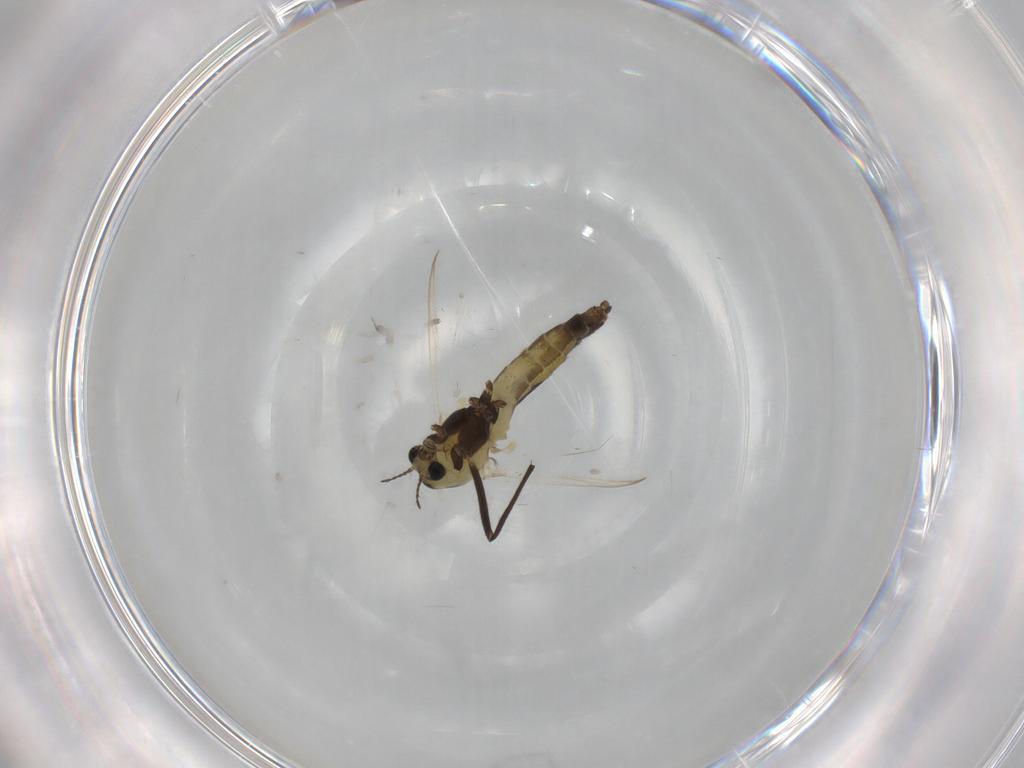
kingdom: Animalia
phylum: Arthropoda
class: Insecta
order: Diptera
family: Chironomidae
